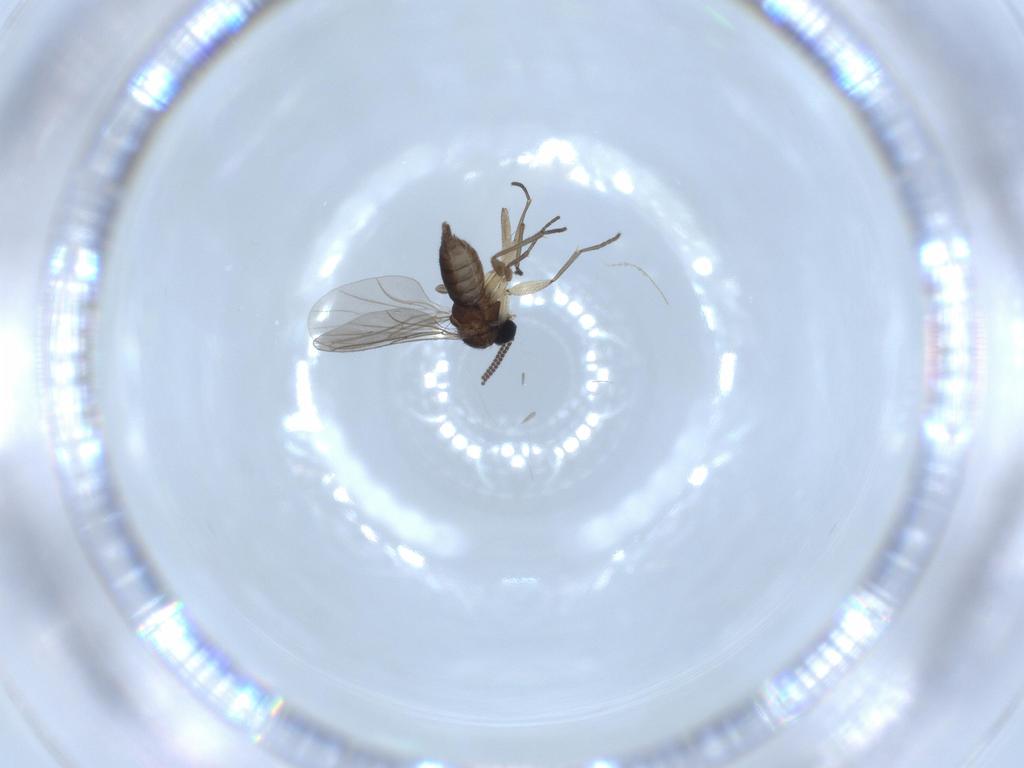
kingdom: Animalia
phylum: Arthropoda
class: Insecta
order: Diptera
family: Sciaridae
